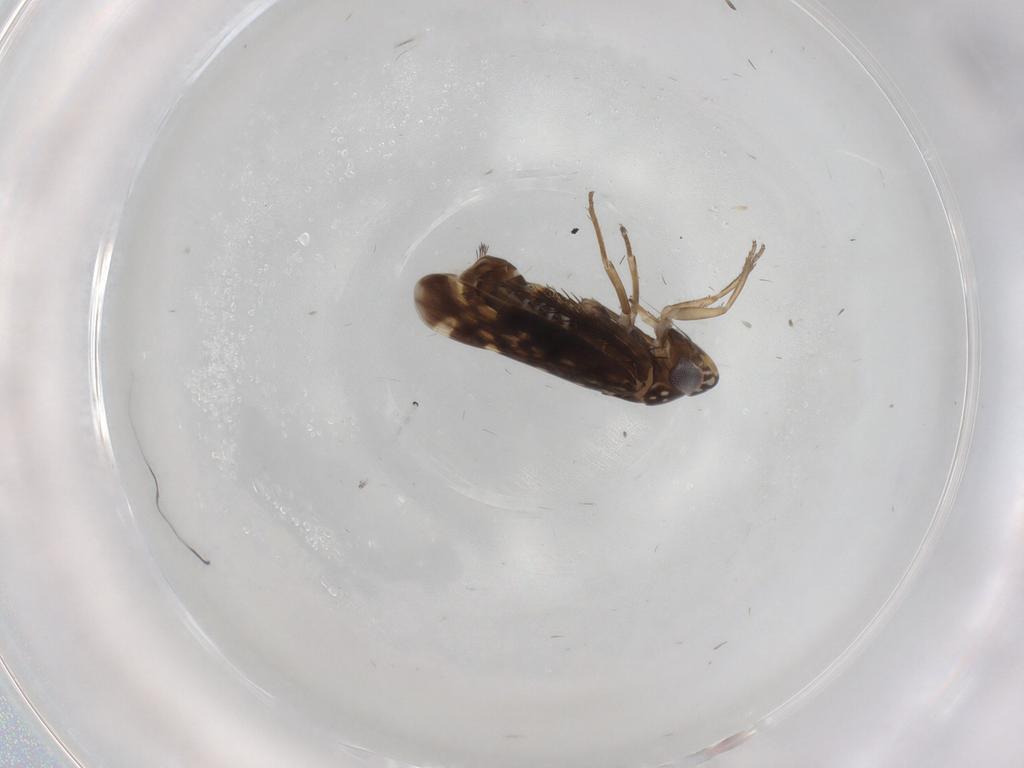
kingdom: Animalia
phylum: Arthropoda
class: Insecta
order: Hemiptera
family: Cicadellidae
